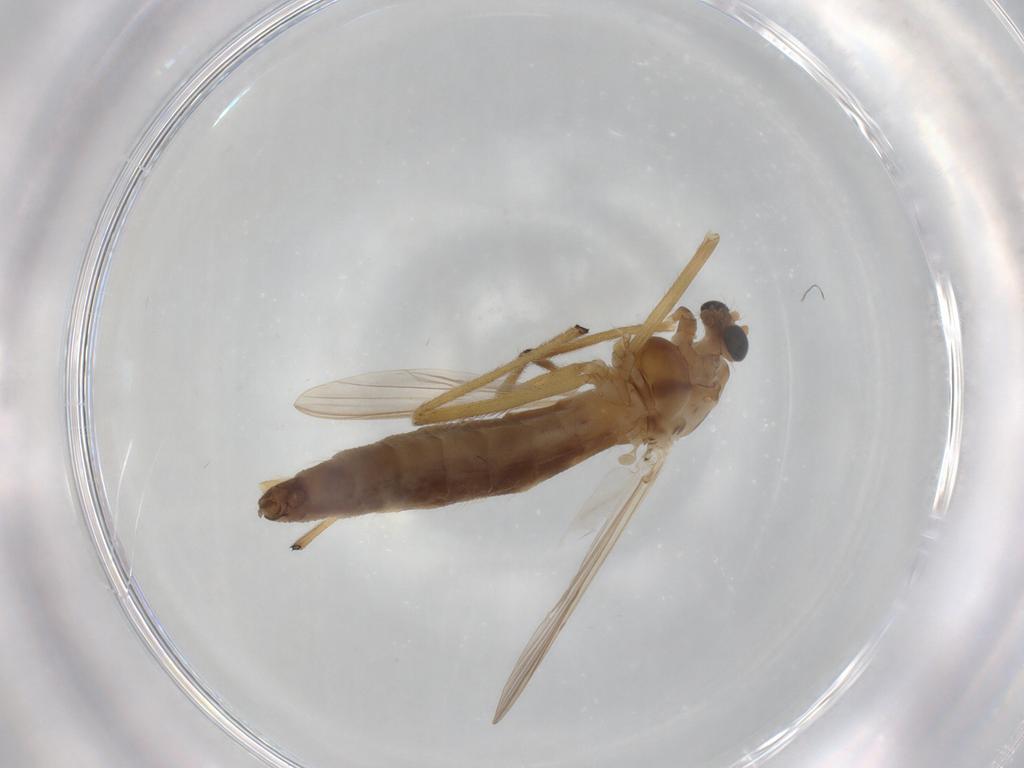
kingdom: Animalia
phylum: Arthropoda
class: Insecta
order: Diptera
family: Chironomidae
